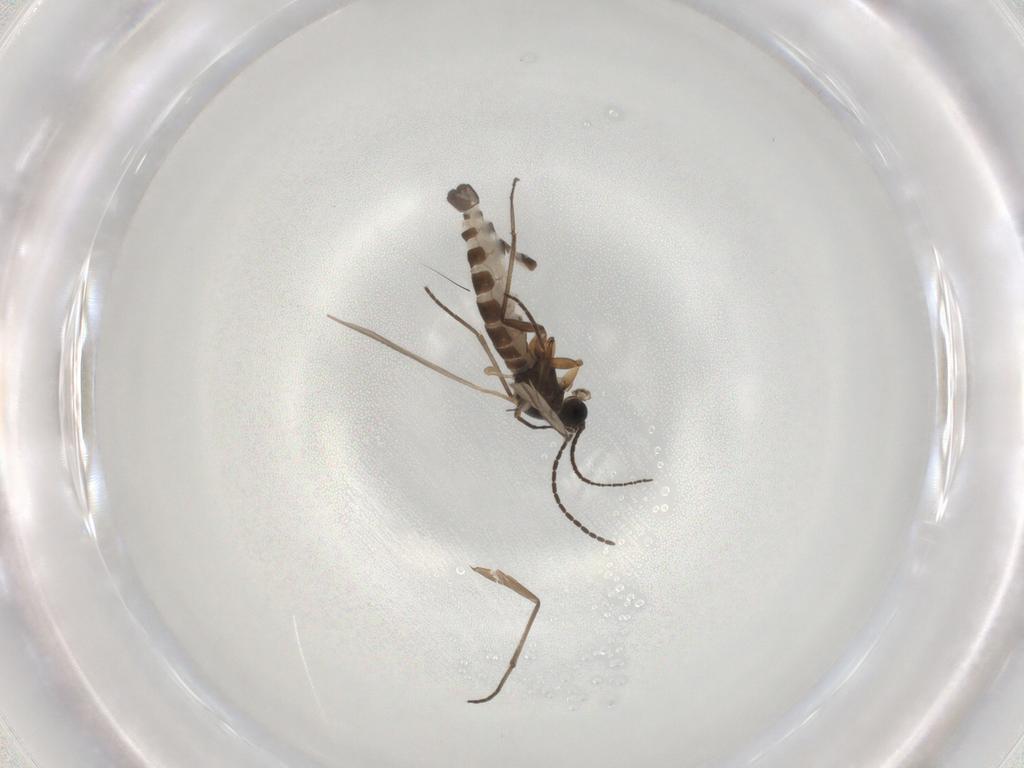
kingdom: Animalia
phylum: Arthropoda
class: Insecta
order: Diptera
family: Sciaridae
